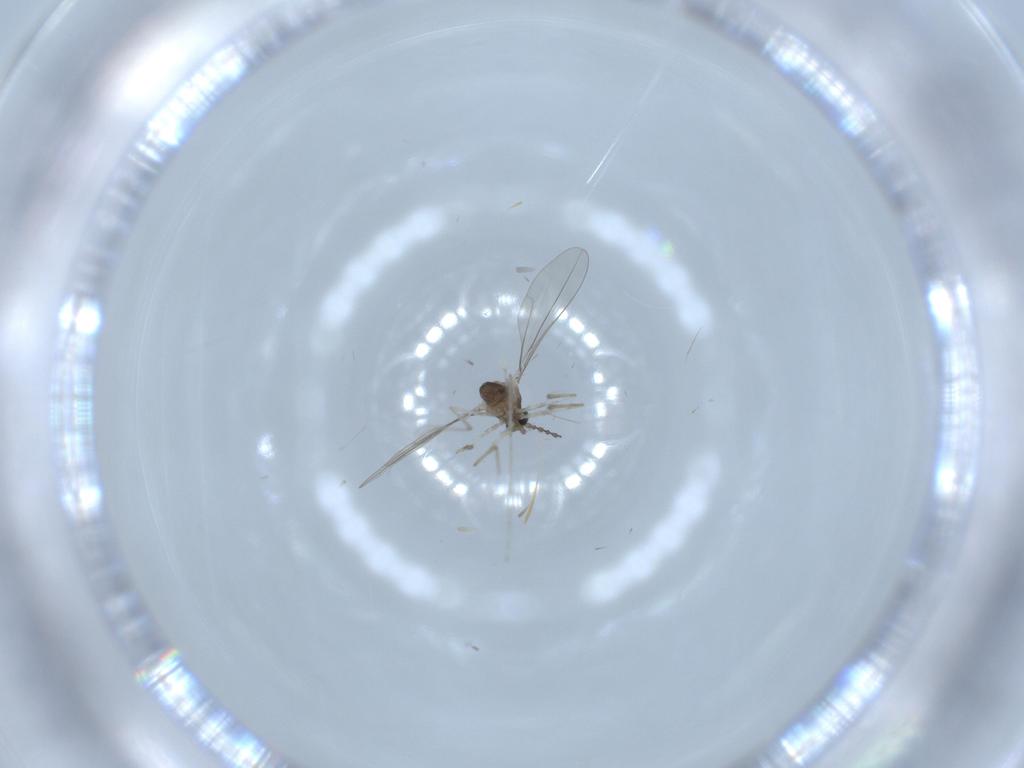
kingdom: Animalia
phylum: Arthropoda
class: Insecta
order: Diptera
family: Cecidomyiidae
